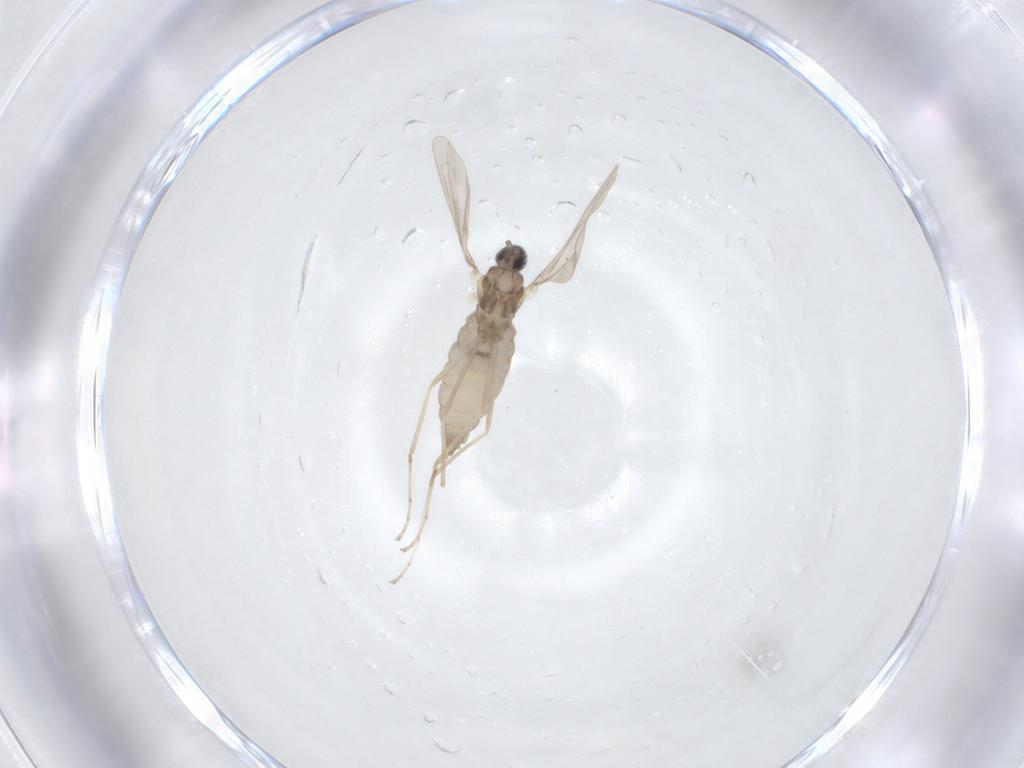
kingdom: Animalia
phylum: Arthropoda
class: Insecta
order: Diptera
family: Cecidomyiidae
